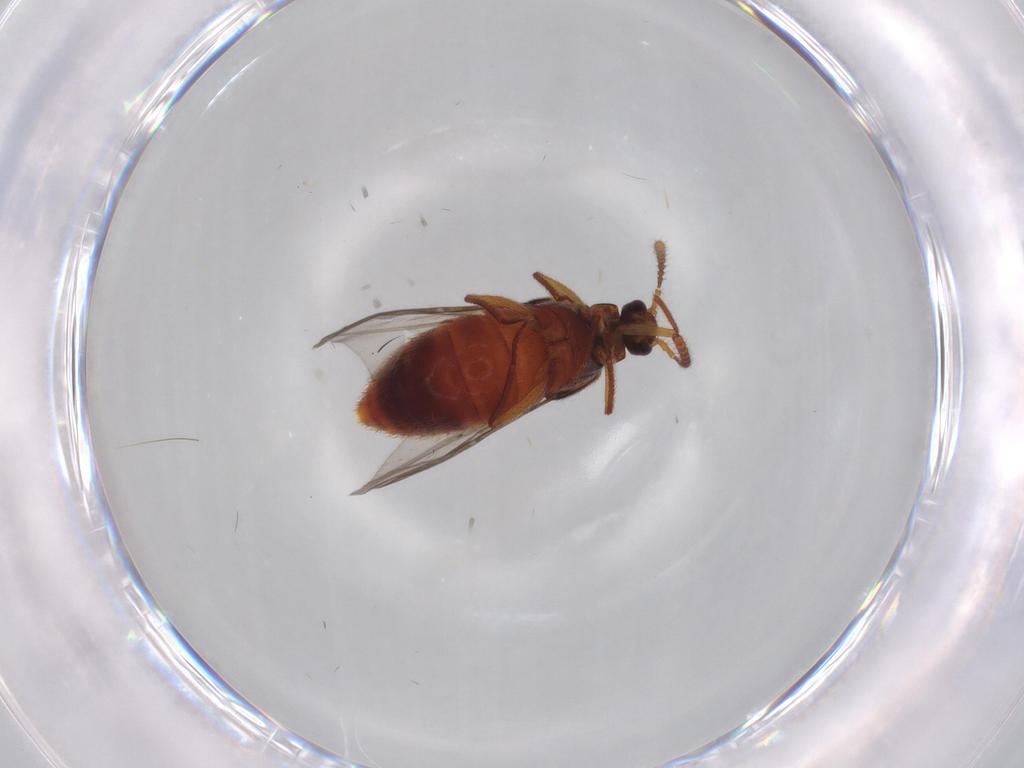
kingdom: Animalia
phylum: Arthropoda
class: Insecta
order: Coleoptera
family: Staphylinidae
